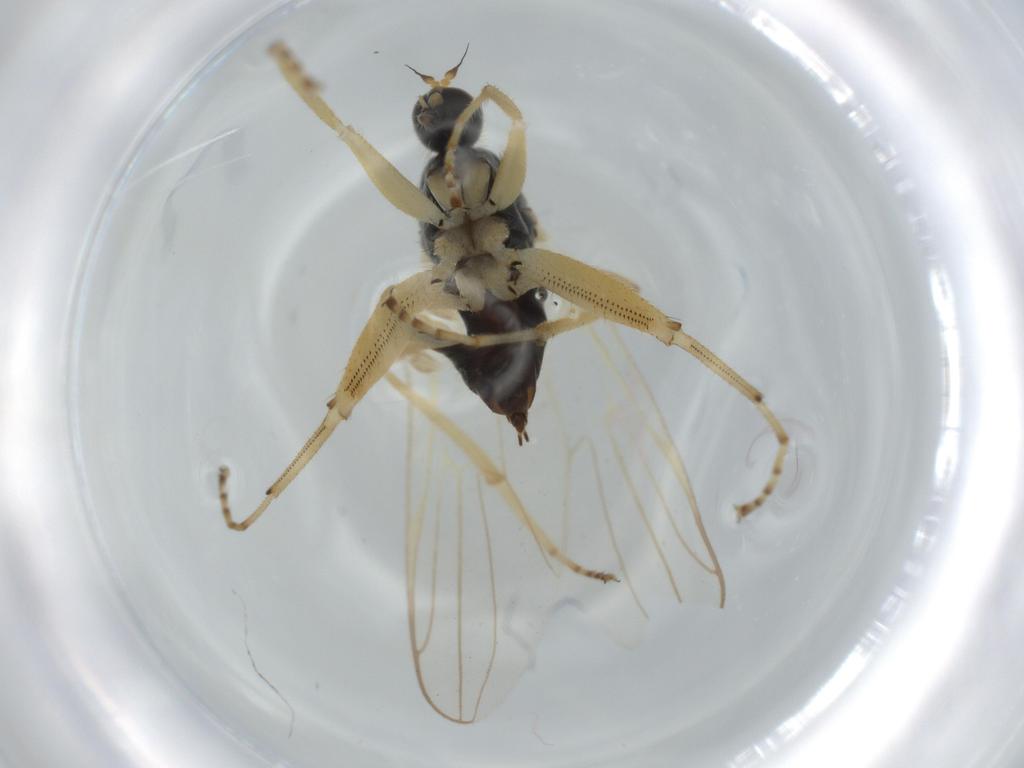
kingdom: Animalia
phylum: Arthropoda
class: Insecta
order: Diptera
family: Hybotidae
